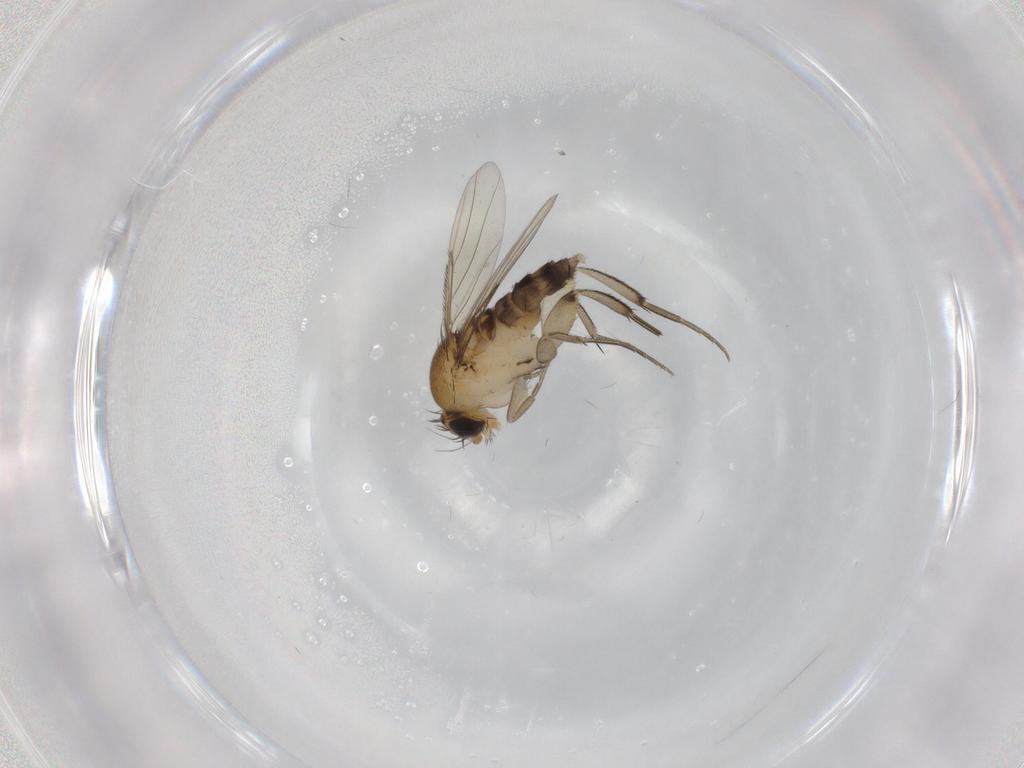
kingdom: Animalia
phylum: Arthropoda
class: Insecta
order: Diptera
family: Phoridae
